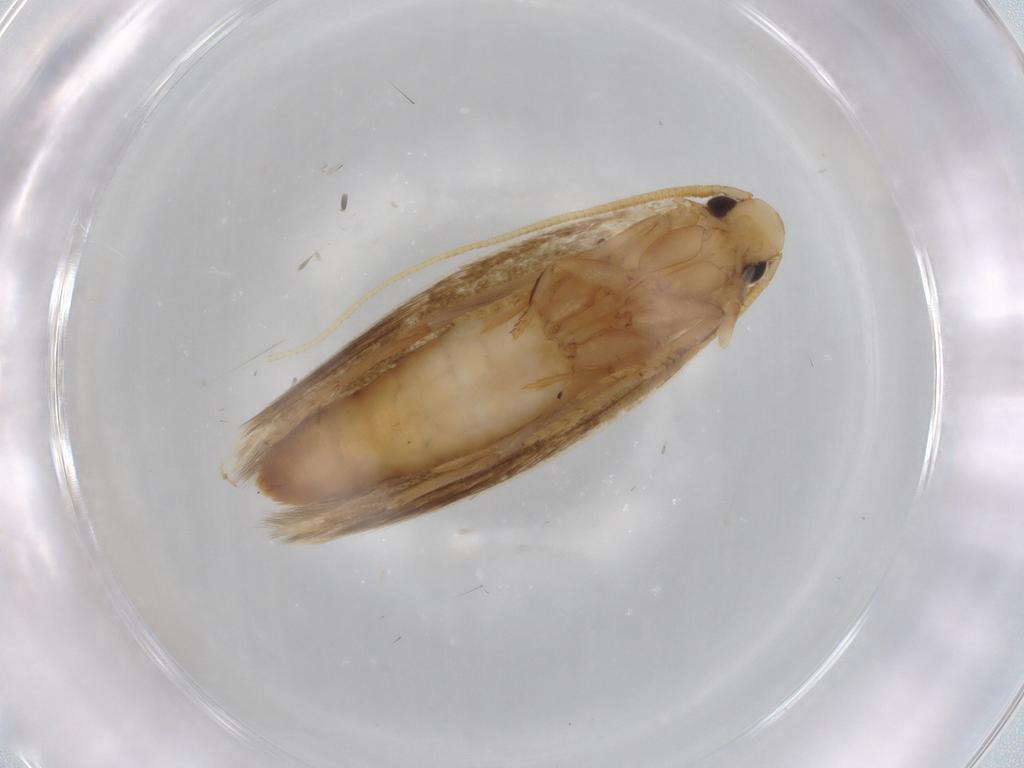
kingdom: Animalia
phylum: Arthropoda
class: Insecta
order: Lepidoptera
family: Tineidae
